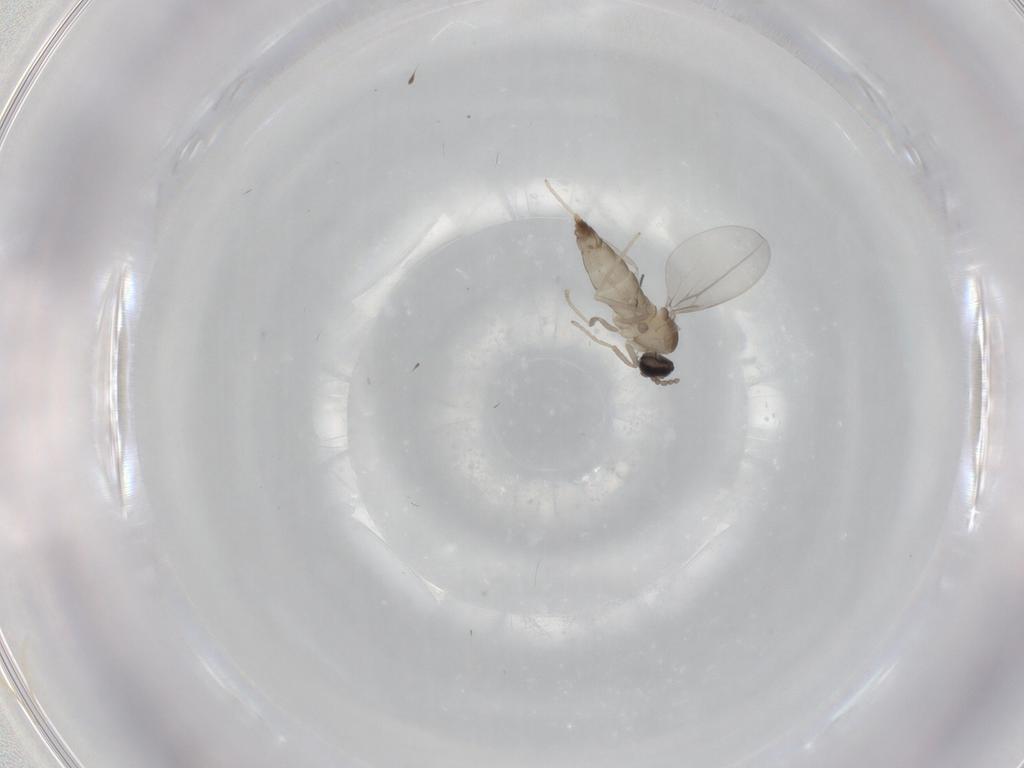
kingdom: Animalia
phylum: Arthropoda
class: Insecta
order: Diptera
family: Cecidomyiidae
